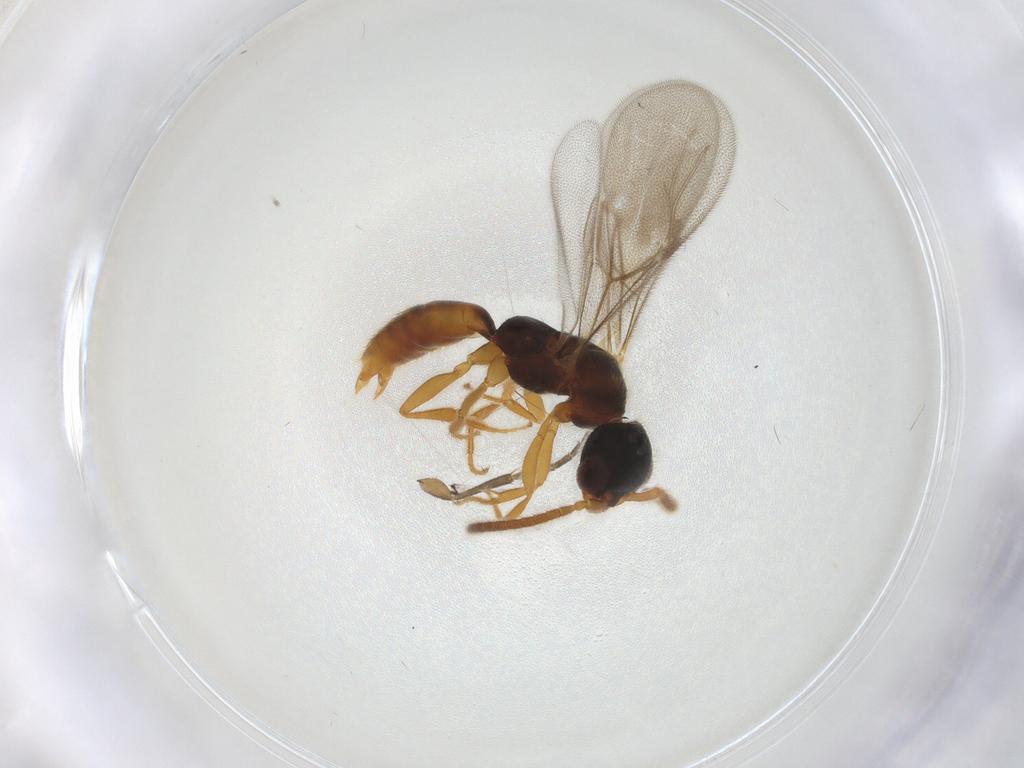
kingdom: Animalia
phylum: Arthropoda
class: Insecta
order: Hymenoptera
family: Bethylidae
